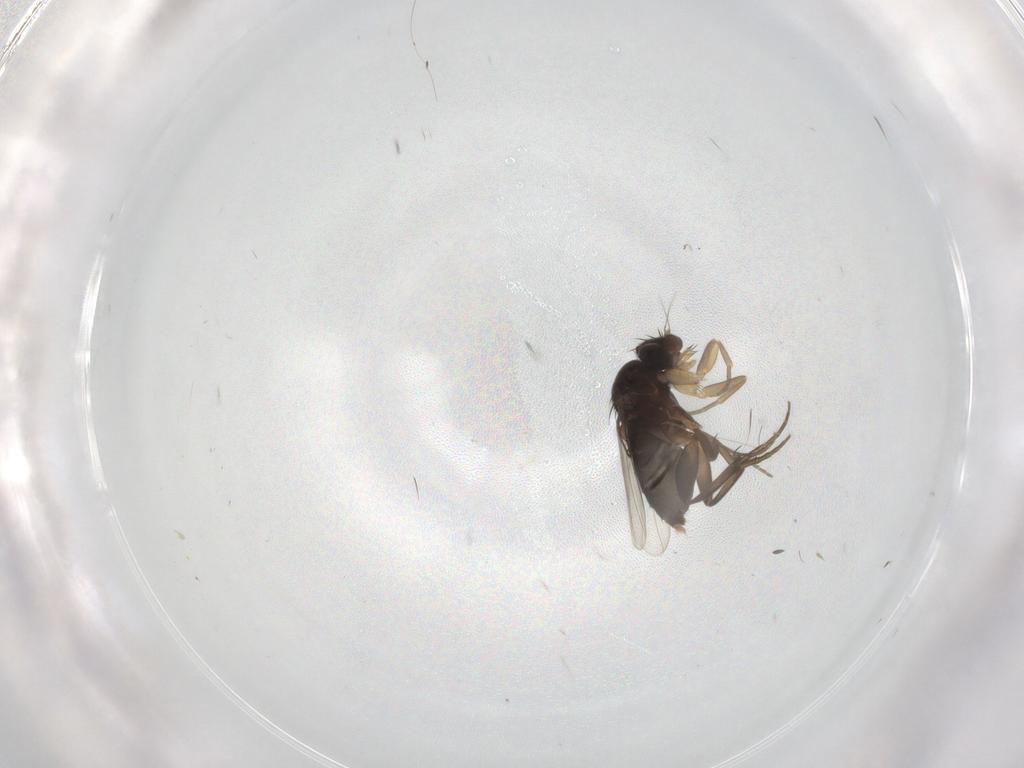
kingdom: Animalia
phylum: Arthropoda
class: Insecta
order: Diptera
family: Phoridae
